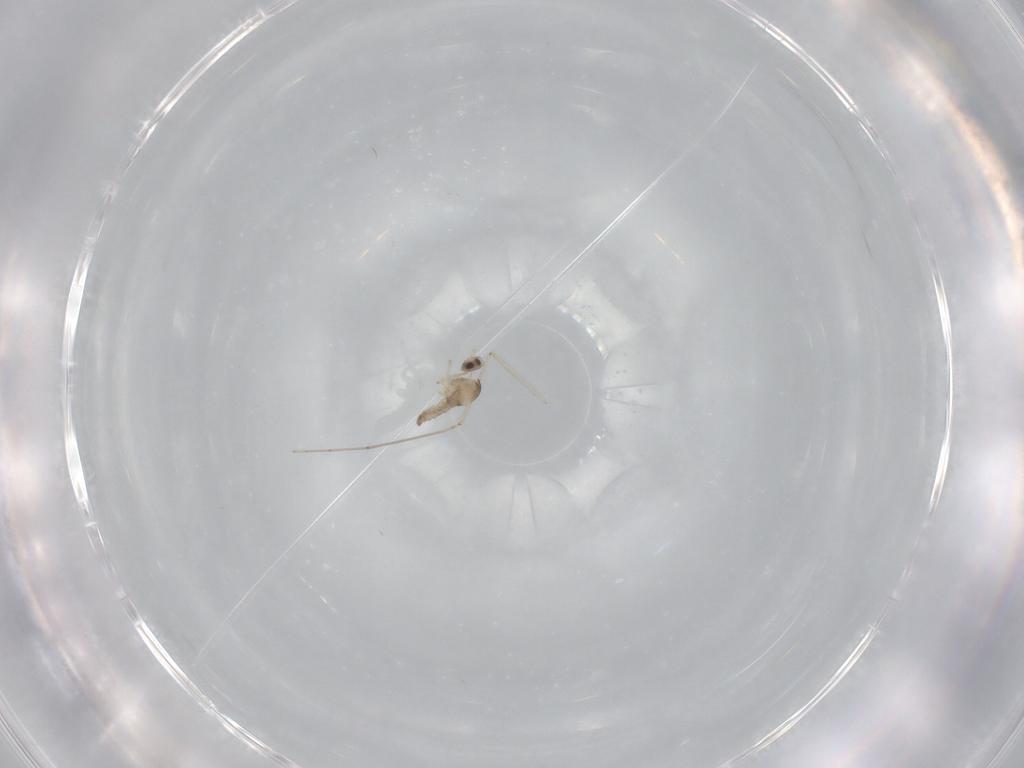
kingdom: Animalia
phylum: Arthropoda
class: Insecta
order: Diptera
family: Cecidomyiidae
